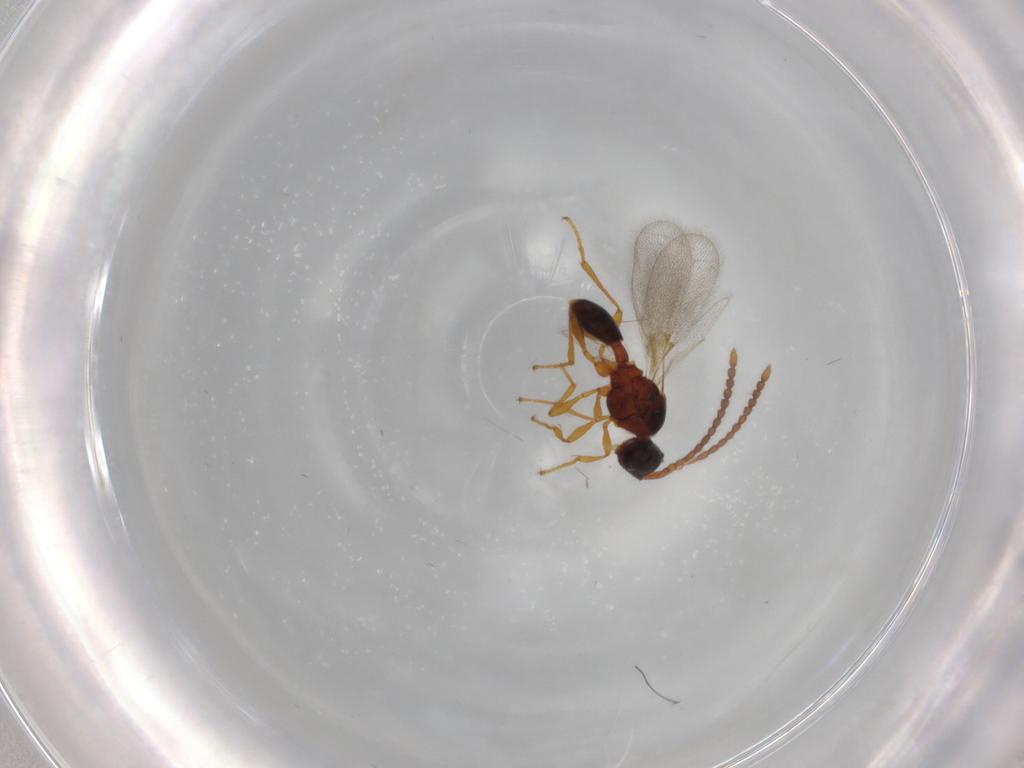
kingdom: Animalia
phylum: Arthropoda
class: Insecta
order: Hymenoptera
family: Diapriidae
